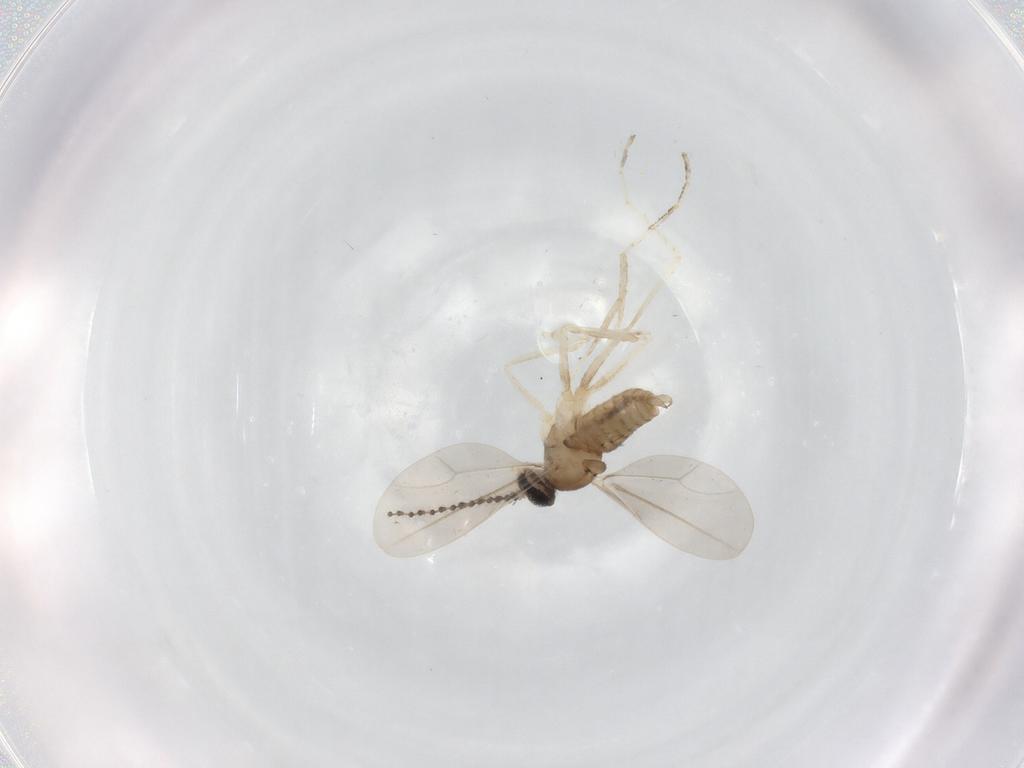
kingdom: Animalia
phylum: Arthropoda
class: Insecta
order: Diptera
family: Cecidomyiidae
